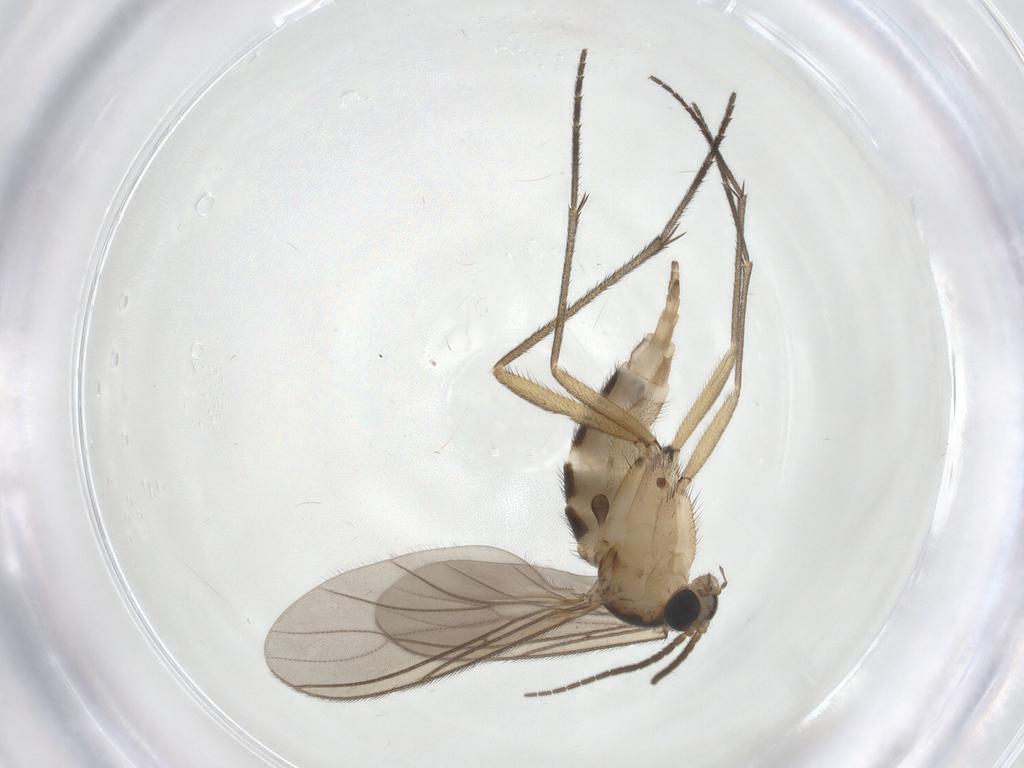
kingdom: Animalia
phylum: Arthropoda
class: Insecta
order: Diptera
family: Sciaridae
